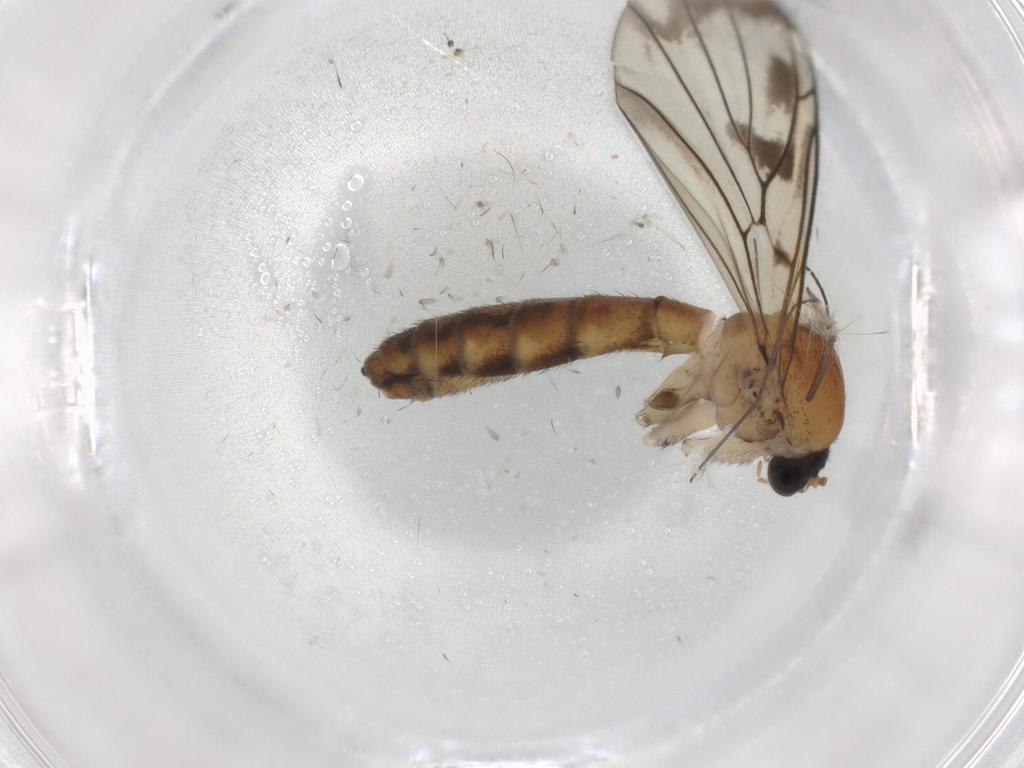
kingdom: Animalia
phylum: Arthropoda
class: Insecta
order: Diptera
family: Keroplatidae
